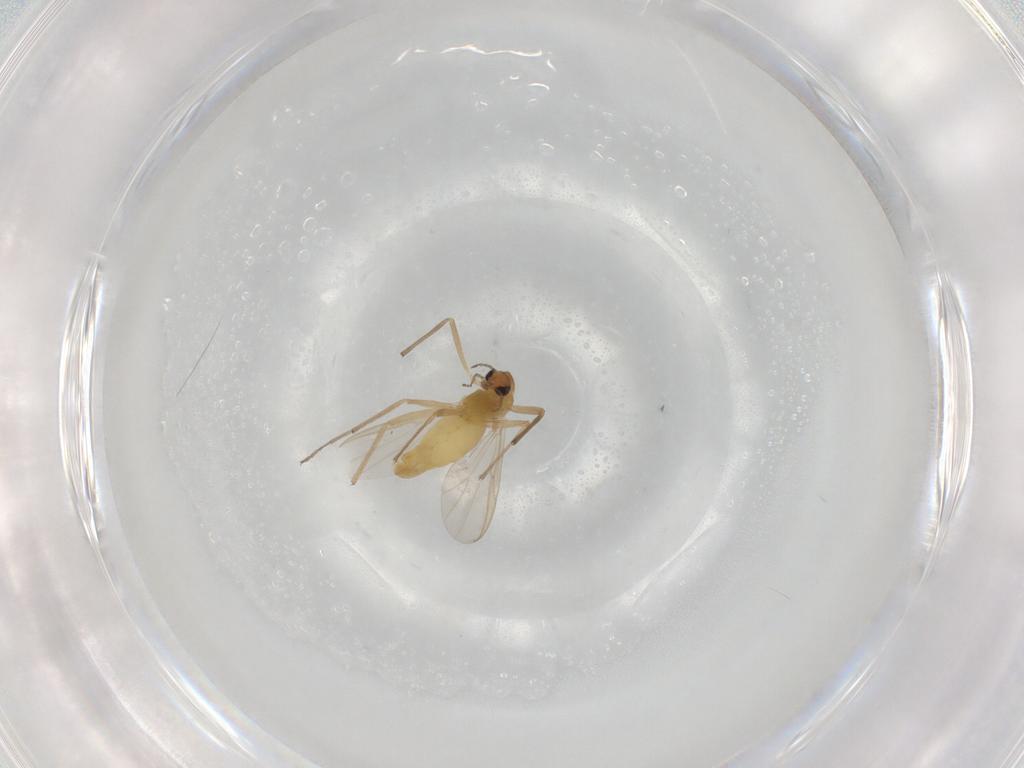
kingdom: Animalia
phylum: Arthropoda
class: Insecta
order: Diptera
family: Chironomidae
